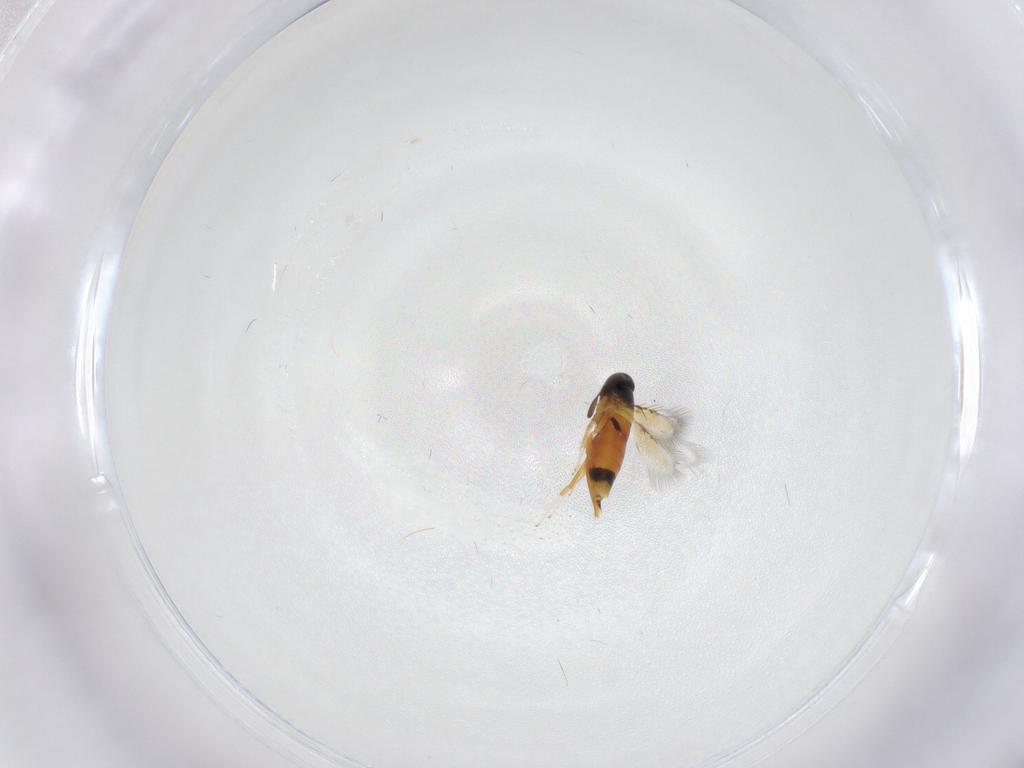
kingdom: Animalia
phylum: Arthropoda
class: Insecta
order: Hymenoptera
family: Signiphoridae
